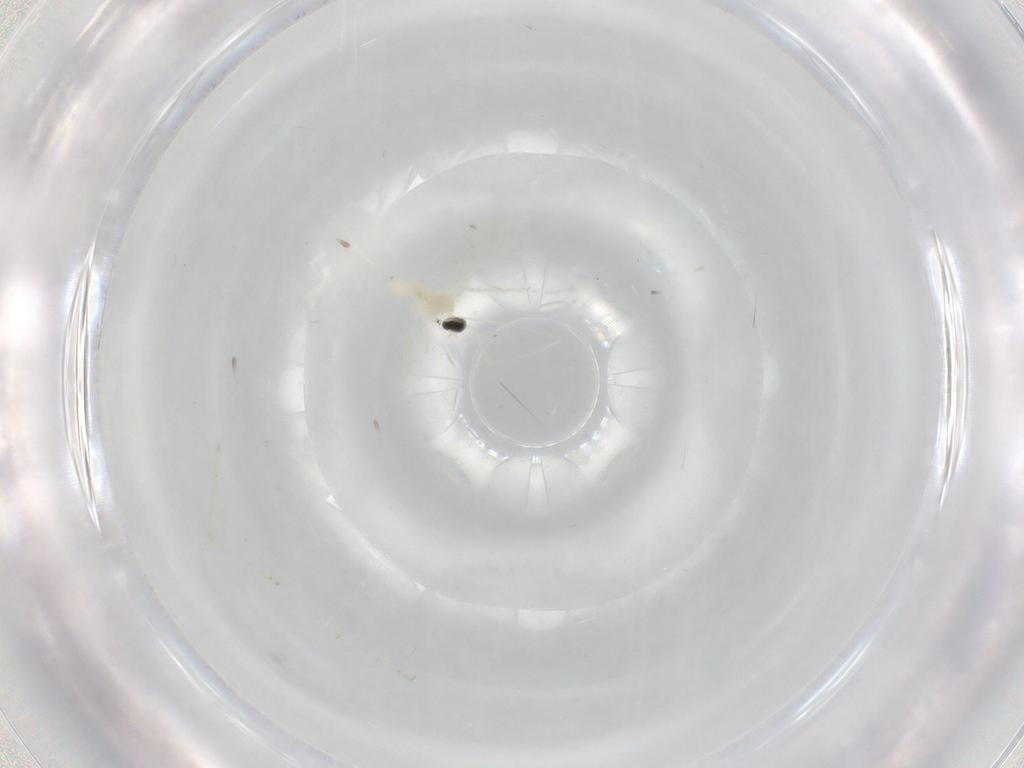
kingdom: Animalia
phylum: Arthropoda
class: Insecta
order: Diptera
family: Cecidomyiidae
